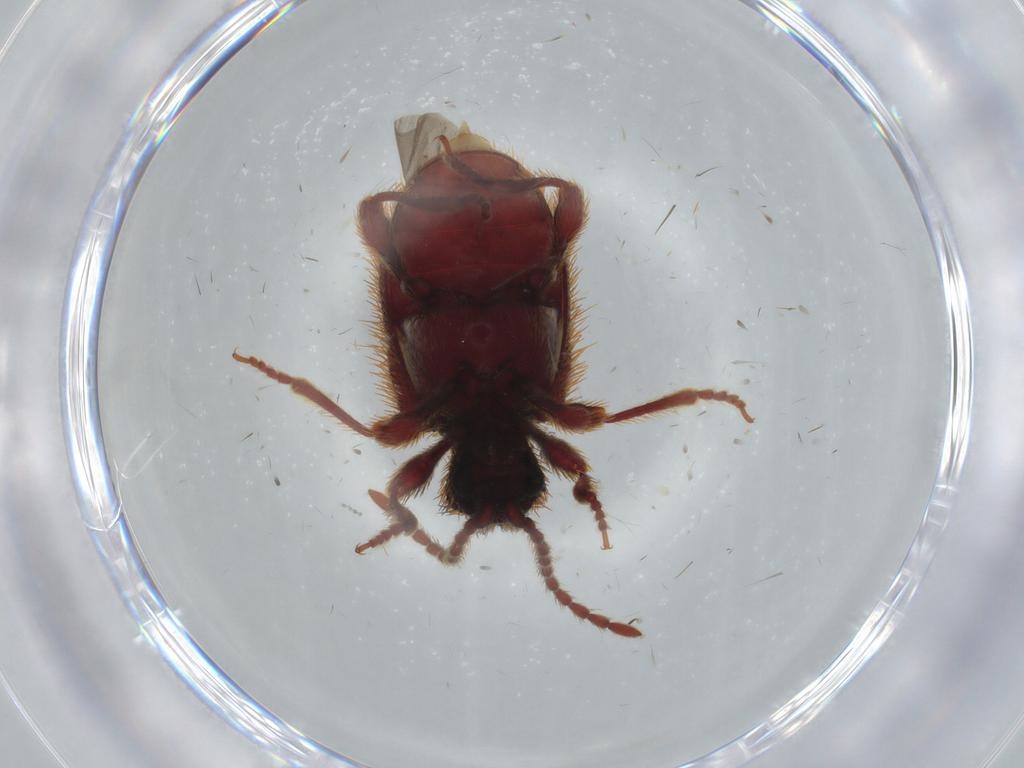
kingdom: Animalia
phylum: Arthropoda
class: Insecta
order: Coleoptera
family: Ptinidae
